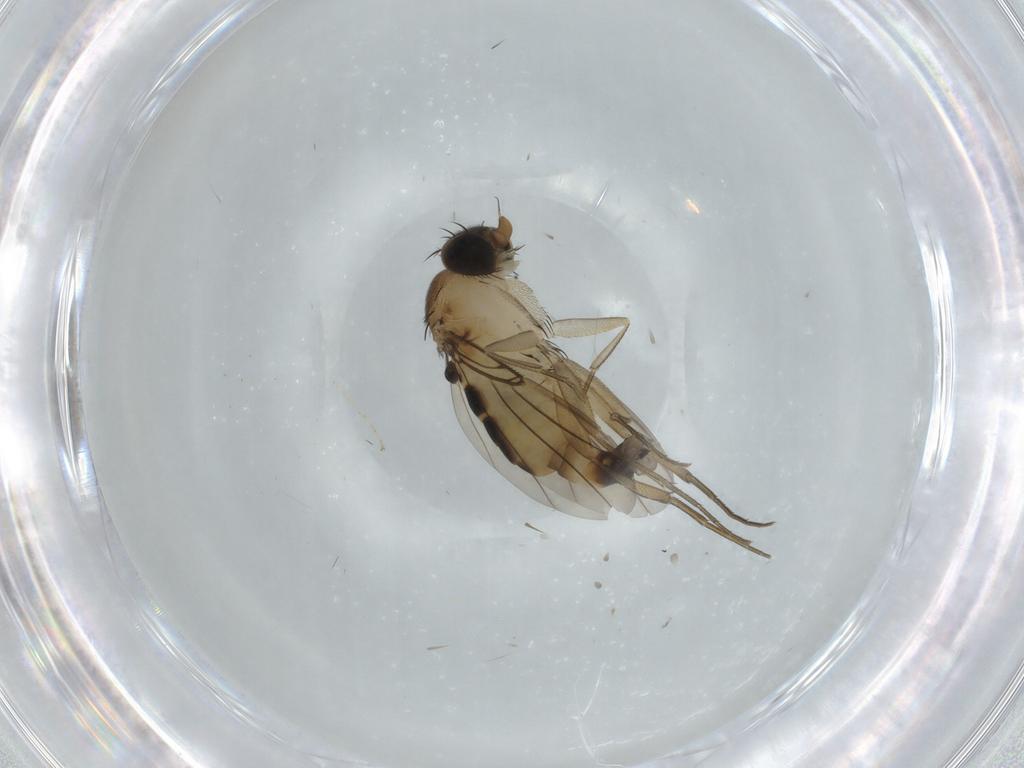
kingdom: Animalia
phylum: Arthropoda
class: Insecta
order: Diptera
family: Phoridae
